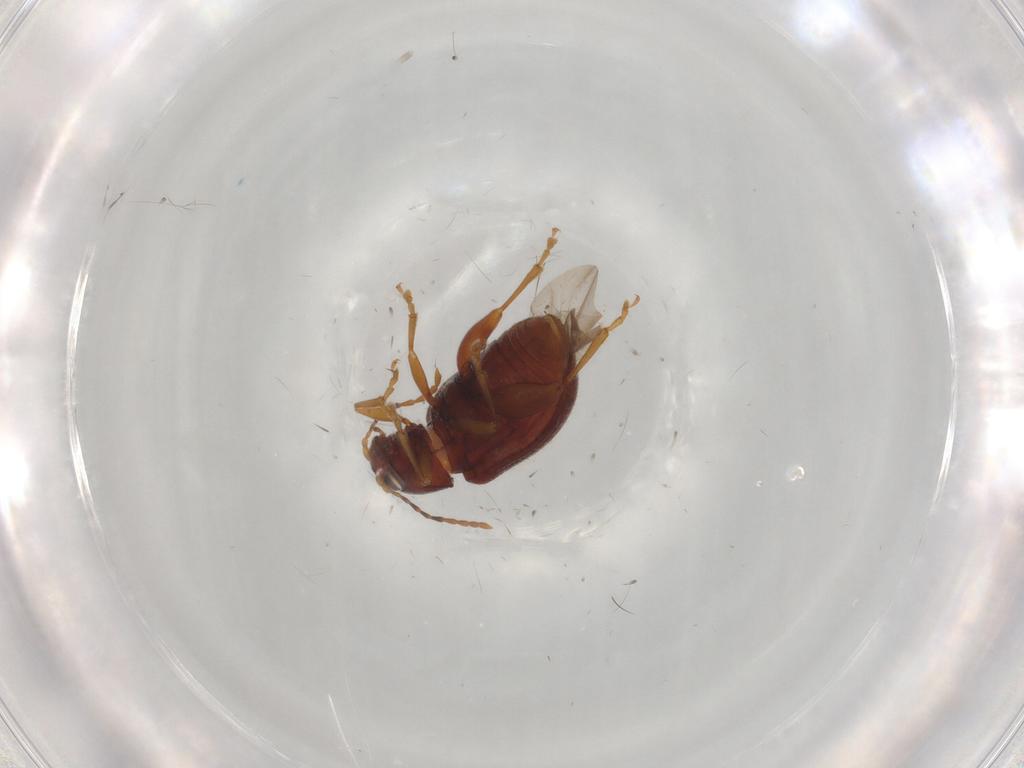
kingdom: Animalia
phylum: Arthropoda
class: Insecta
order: Coleoptera
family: Chrysomelidae
